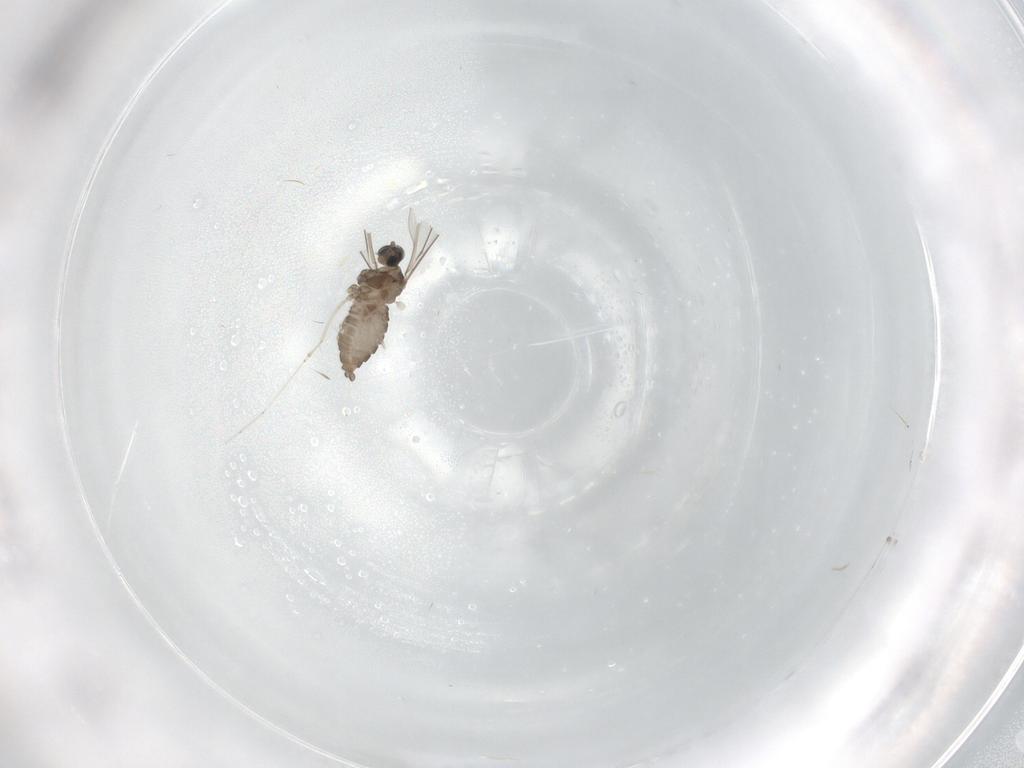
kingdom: Animalia
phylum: Arthropoda
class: Insecta
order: Diptera
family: Cecidomyiidae
